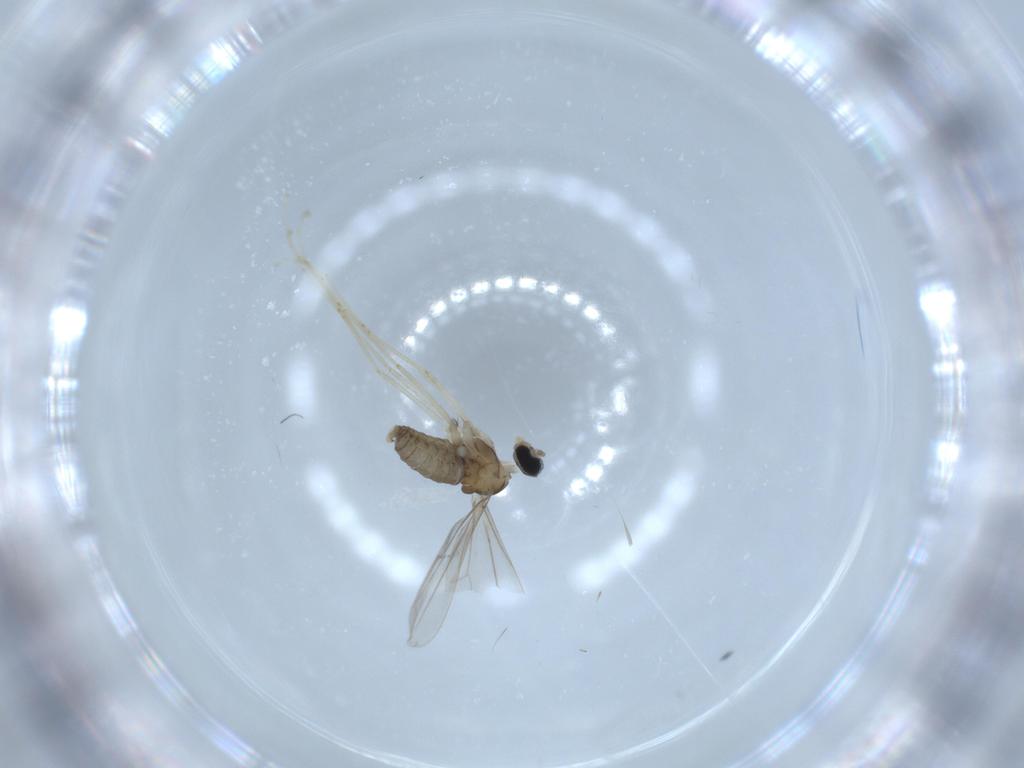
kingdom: Animalia
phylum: Arthropoda
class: Insecta
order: Diptera
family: Cecidomyiidae
